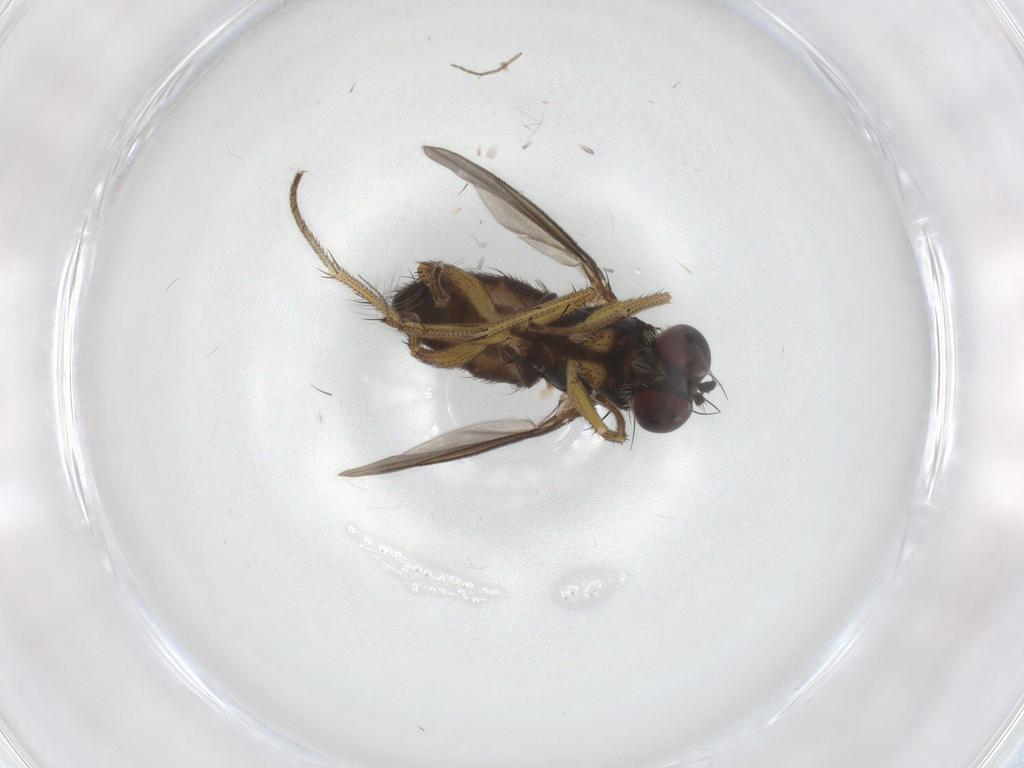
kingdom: Animalia
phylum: Arthropoda
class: Insecta
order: Diptera
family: Dolichopodidae
